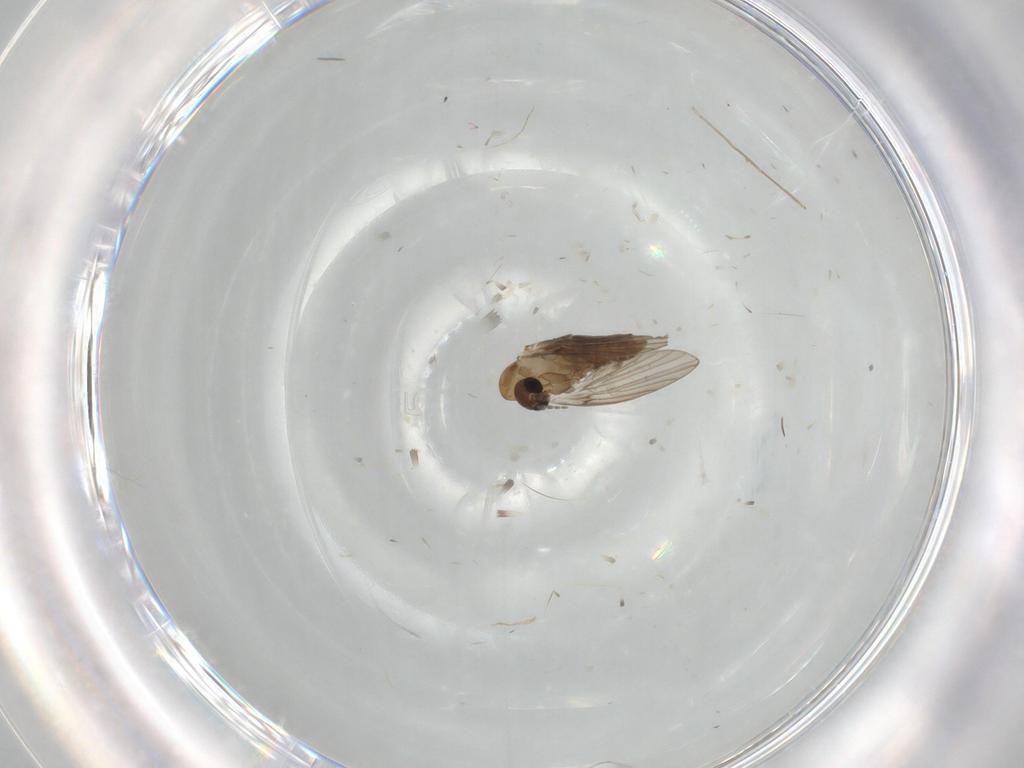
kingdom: Animalia
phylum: Arthropoda
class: Insecta
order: Diptera
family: Chironomidae
